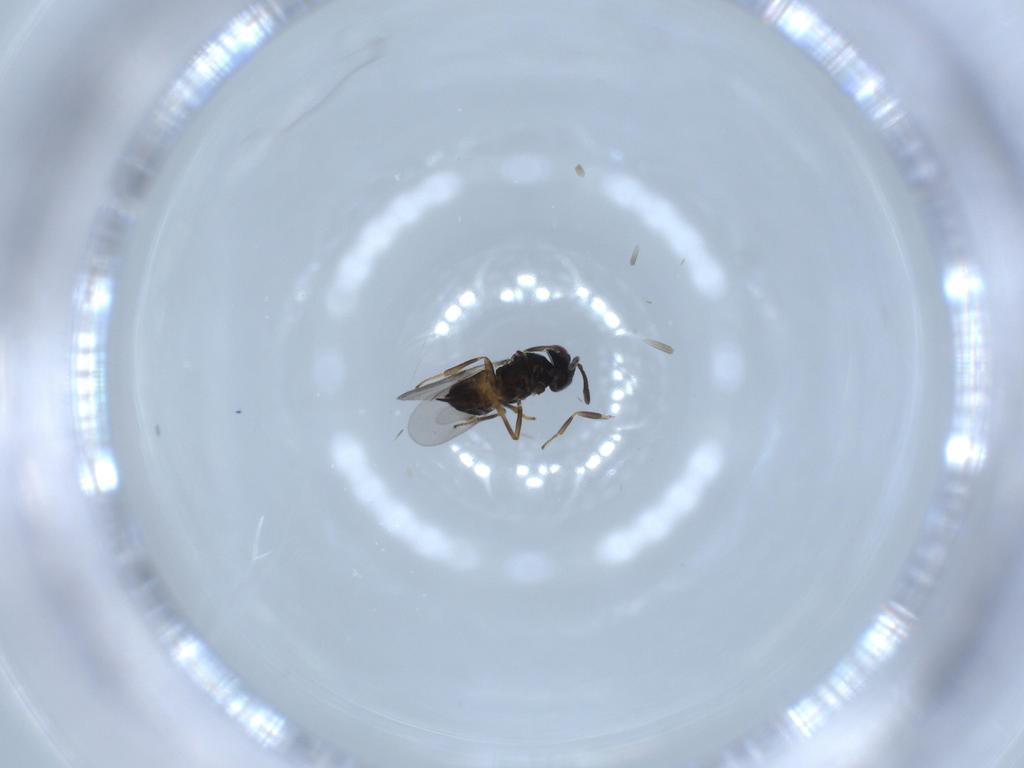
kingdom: Animalia
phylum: Arthropoda
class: Insecta
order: Hymenoptera
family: Encyrtidae
